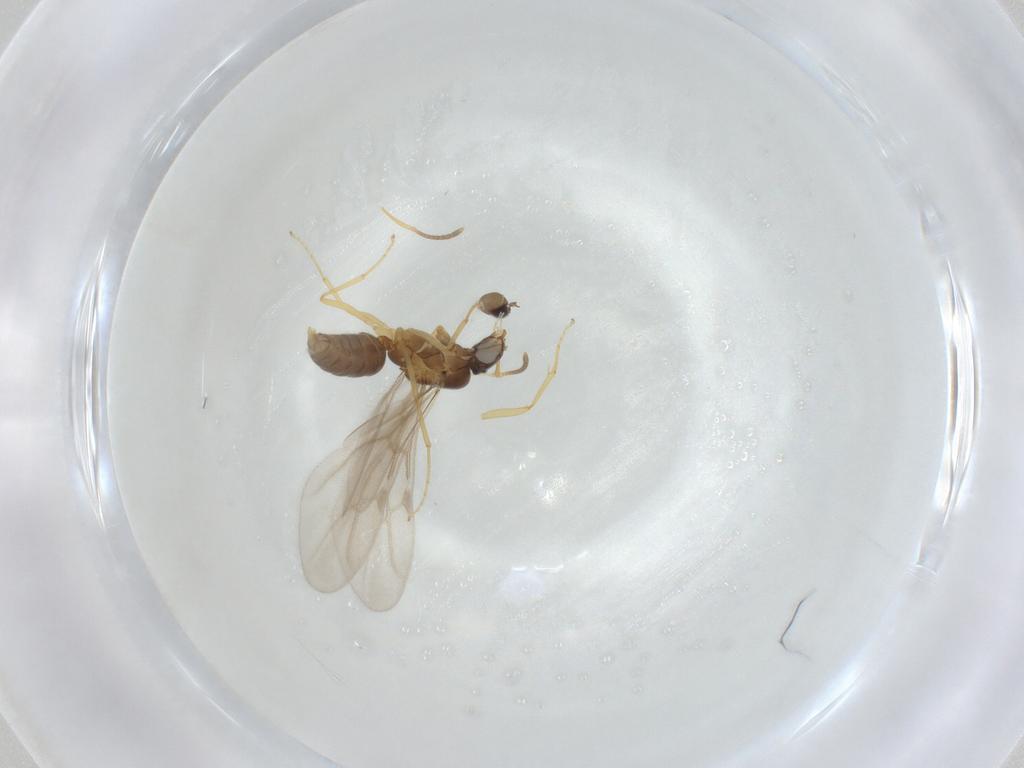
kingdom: Animalia
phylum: Arthropoda
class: Insecta
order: Hymenoptera
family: Formicidae
